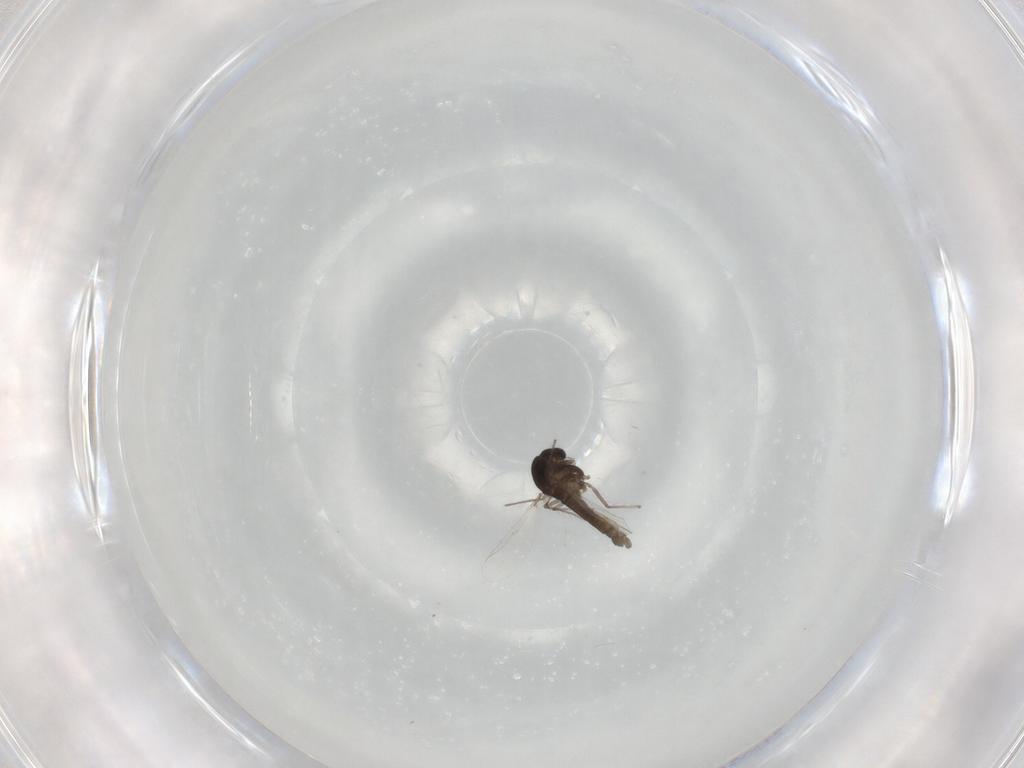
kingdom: Animalia
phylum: Arthropoda
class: Insecta
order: Diptera
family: Chironomidae
